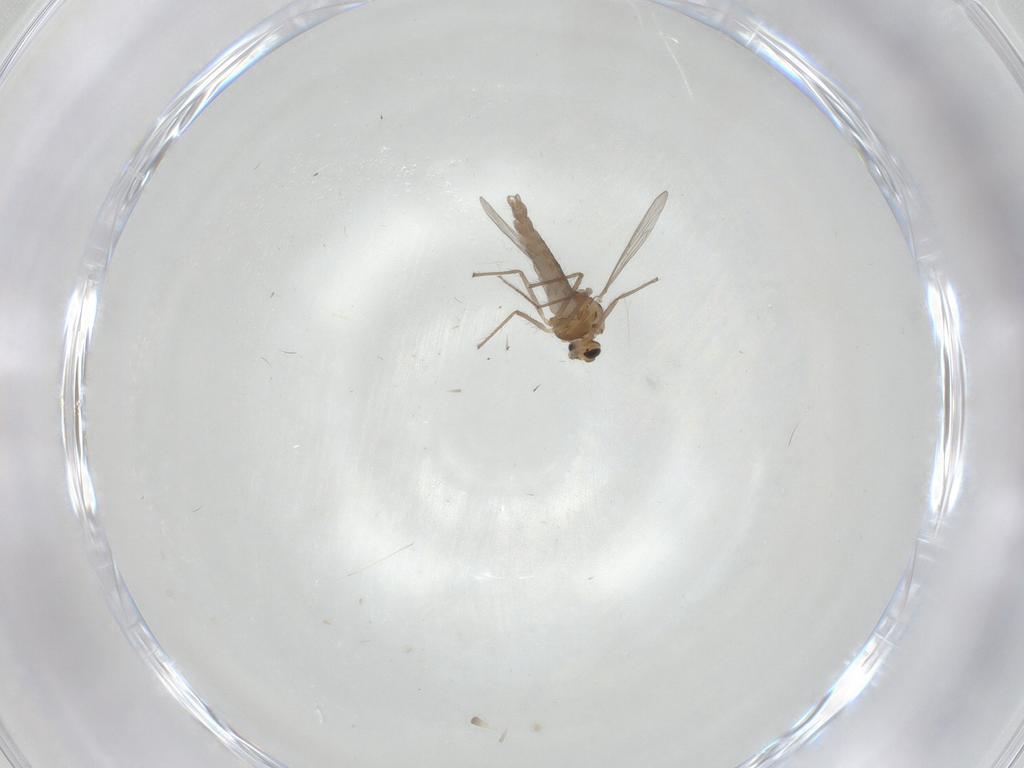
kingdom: Animalia
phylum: Arthropoda
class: Insecta
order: Diptera
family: Chironomidae
